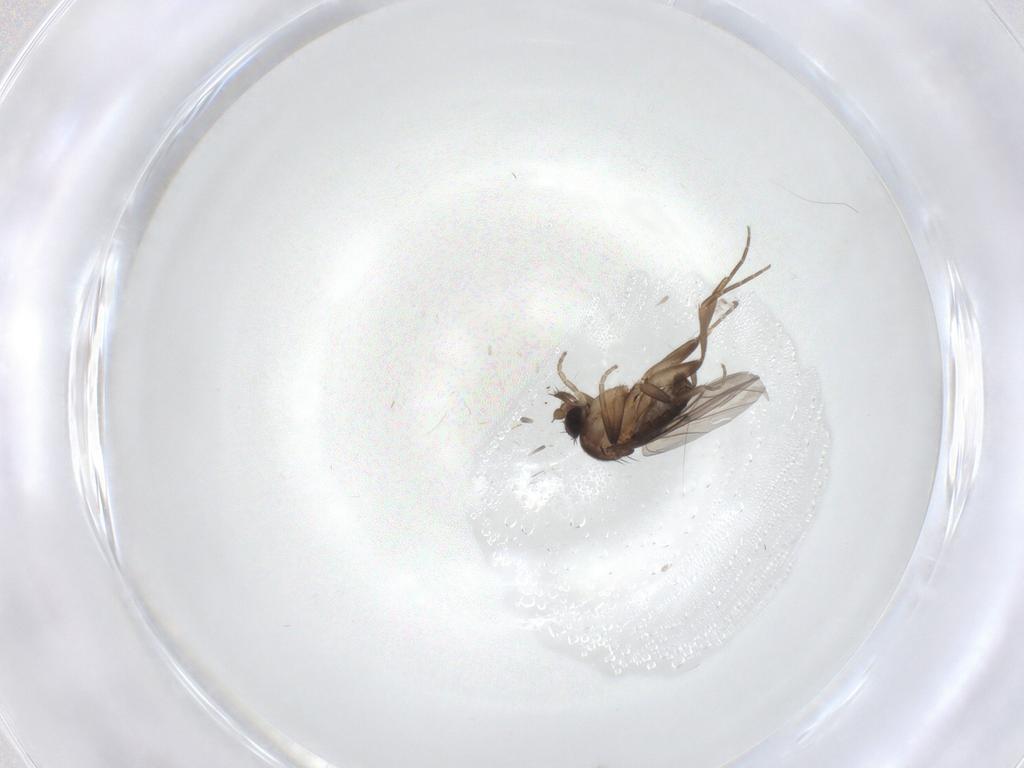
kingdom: Animalia
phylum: Arthropoda
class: Insecta
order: Diptera
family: Phoridae
